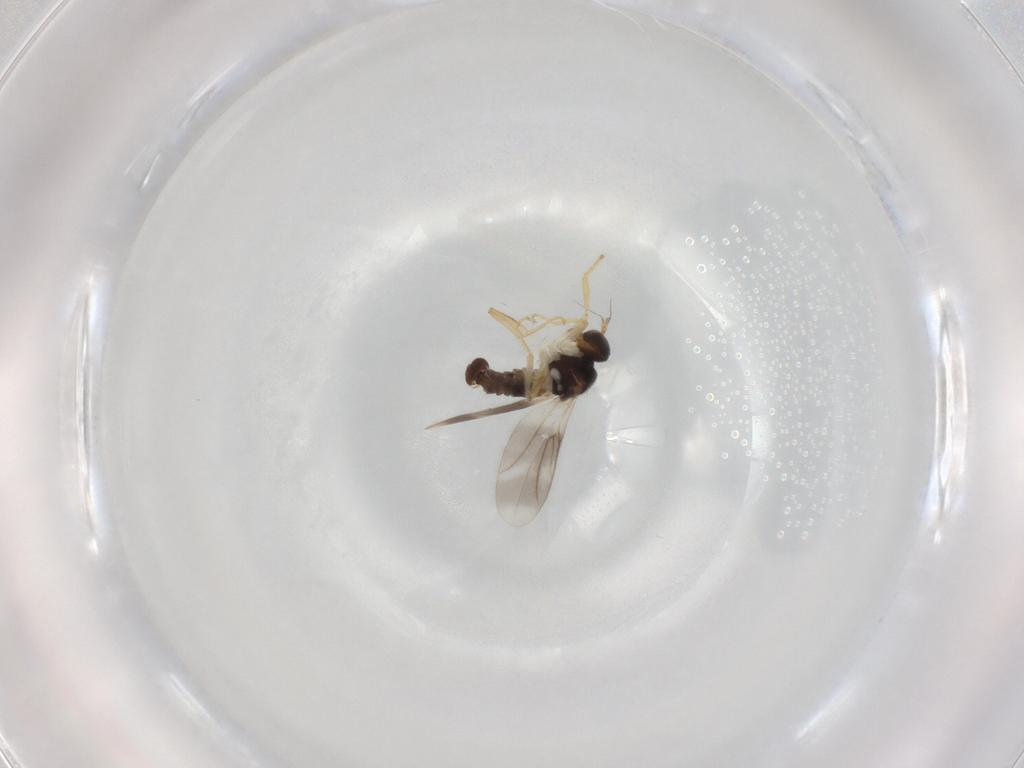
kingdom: Animalia
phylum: Arthropoda
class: Insecta
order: Diptera
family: Hybotidae
